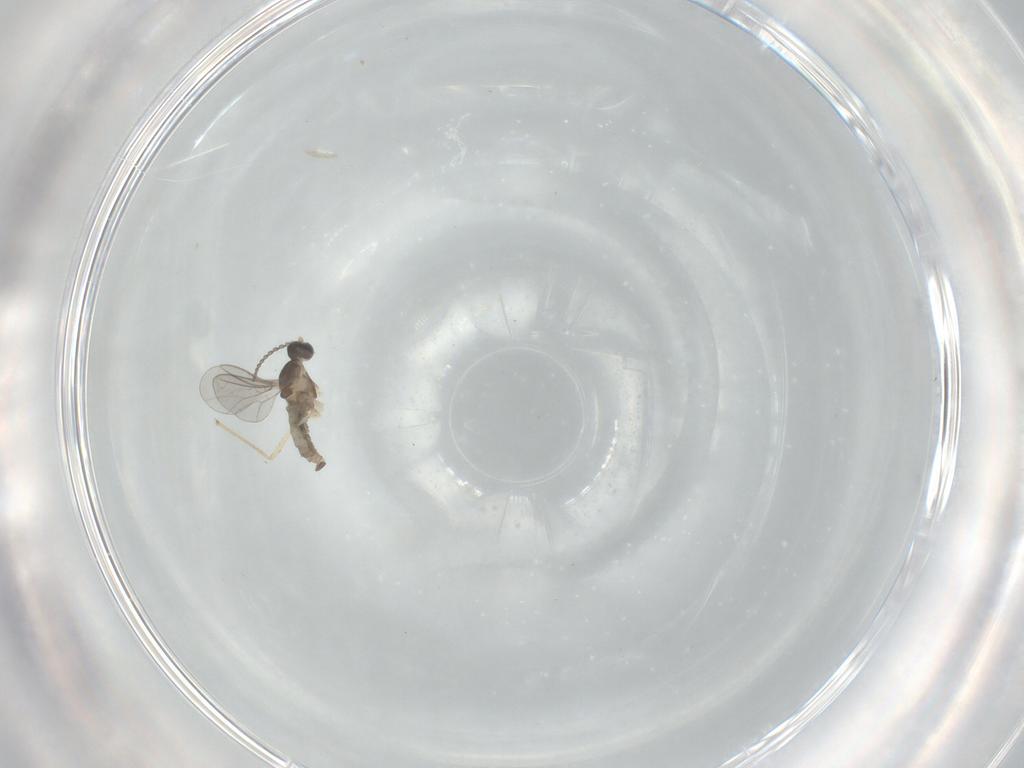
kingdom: Animalia
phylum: Arthropoda
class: Insecta
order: Diptera
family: Cecidomyiidae
